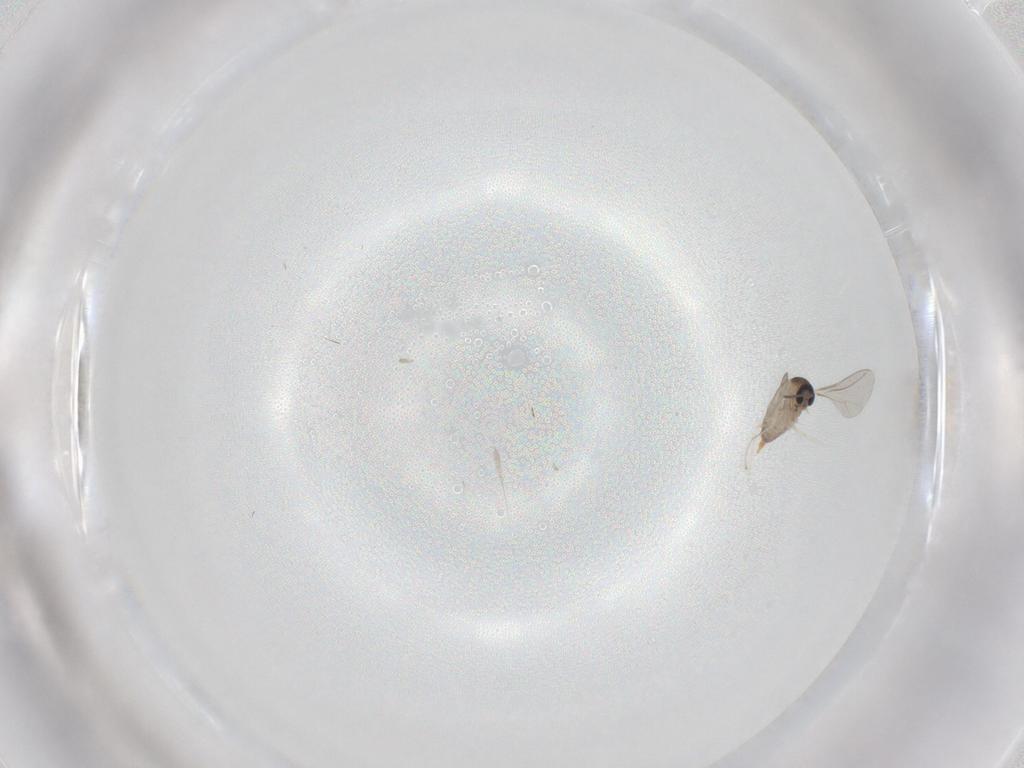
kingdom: Animalia
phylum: Arthropoda
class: Insecta
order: Diptera
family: Cecidomyiidae
